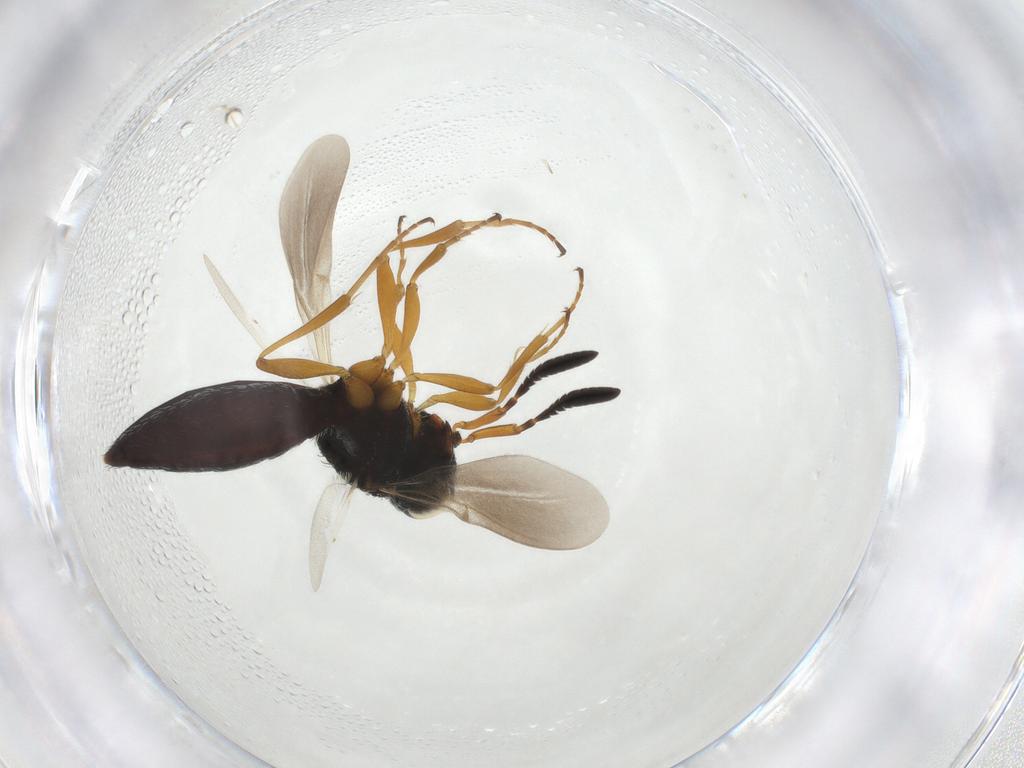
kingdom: Animalia
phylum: Arthropoda
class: Insecta
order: Hymenoptera
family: Scelionidae
